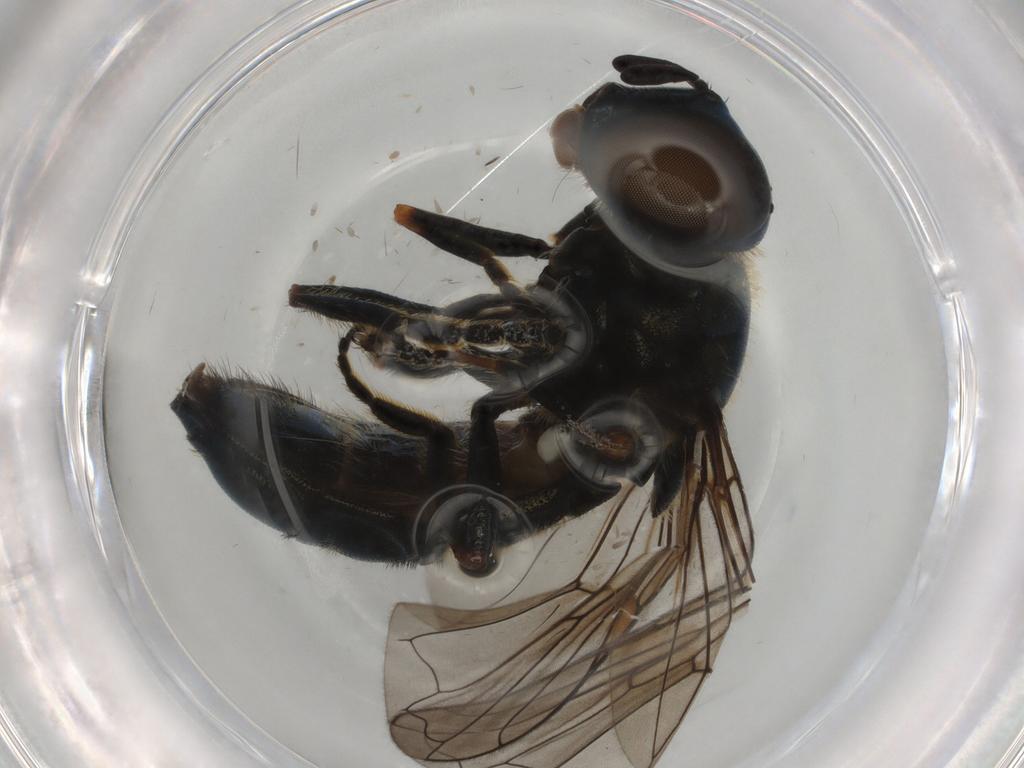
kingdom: Animalia
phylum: Arthropoda
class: Insecta
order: Diptera
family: Syrphidae
